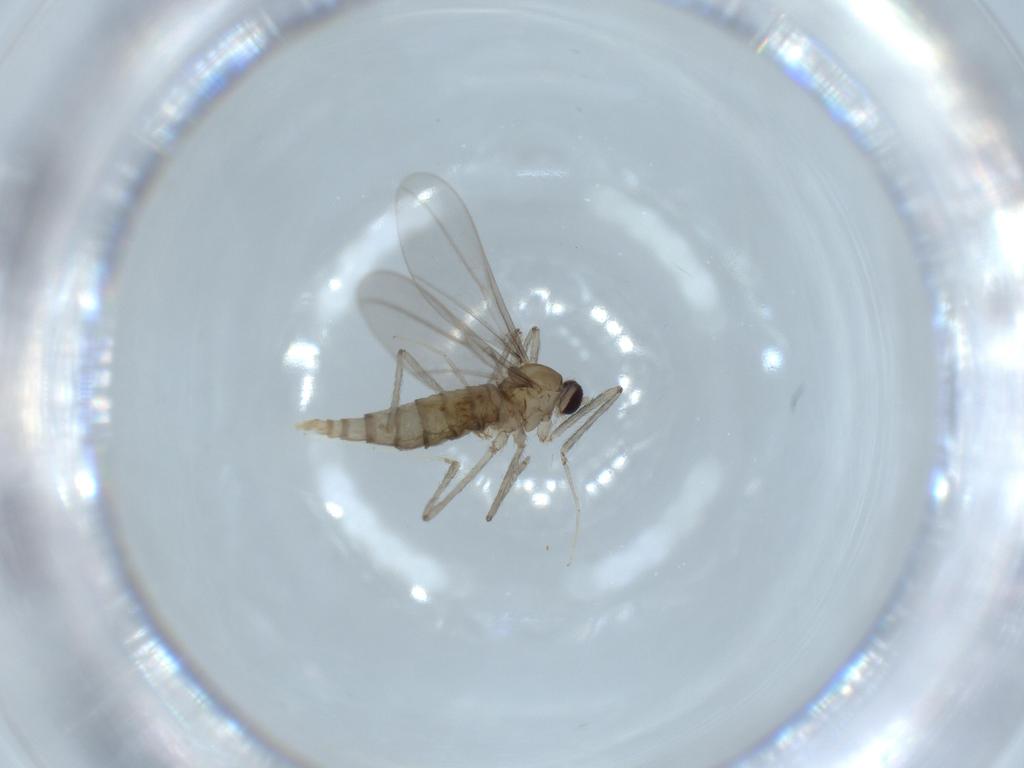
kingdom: Animalia
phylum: Arthropoda
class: Insecta
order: Diptera
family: Cecidomyiidae
